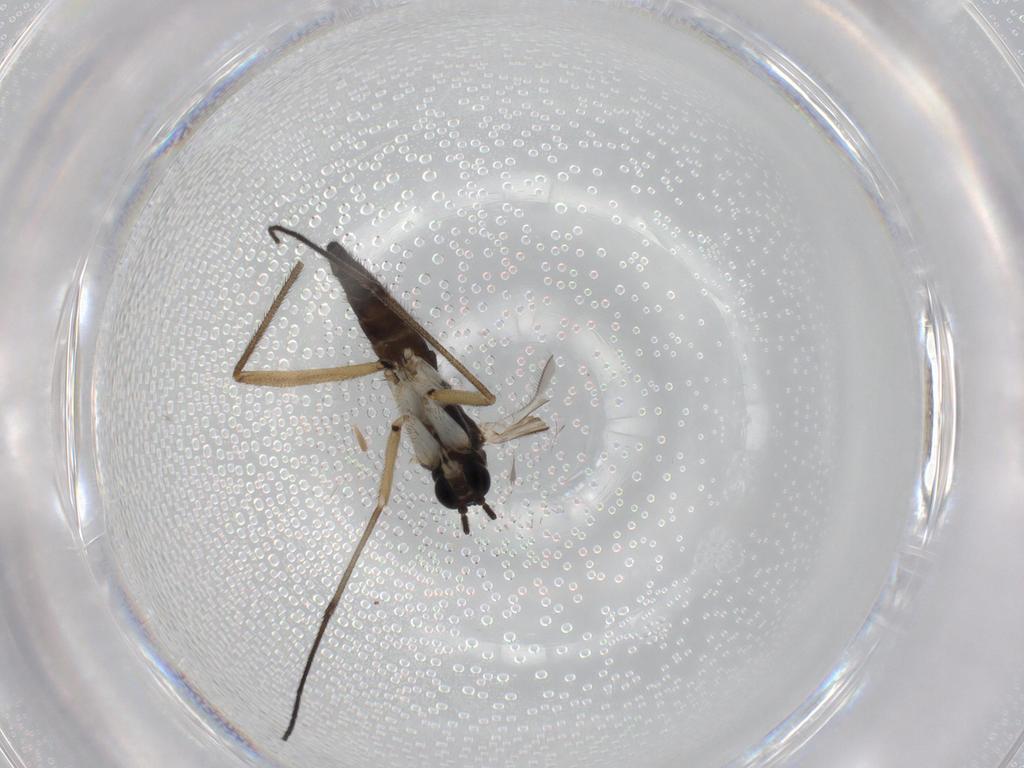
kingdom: Animalia
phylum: Arthropoda
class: Insecta
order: Diptera
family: Sciaridae
